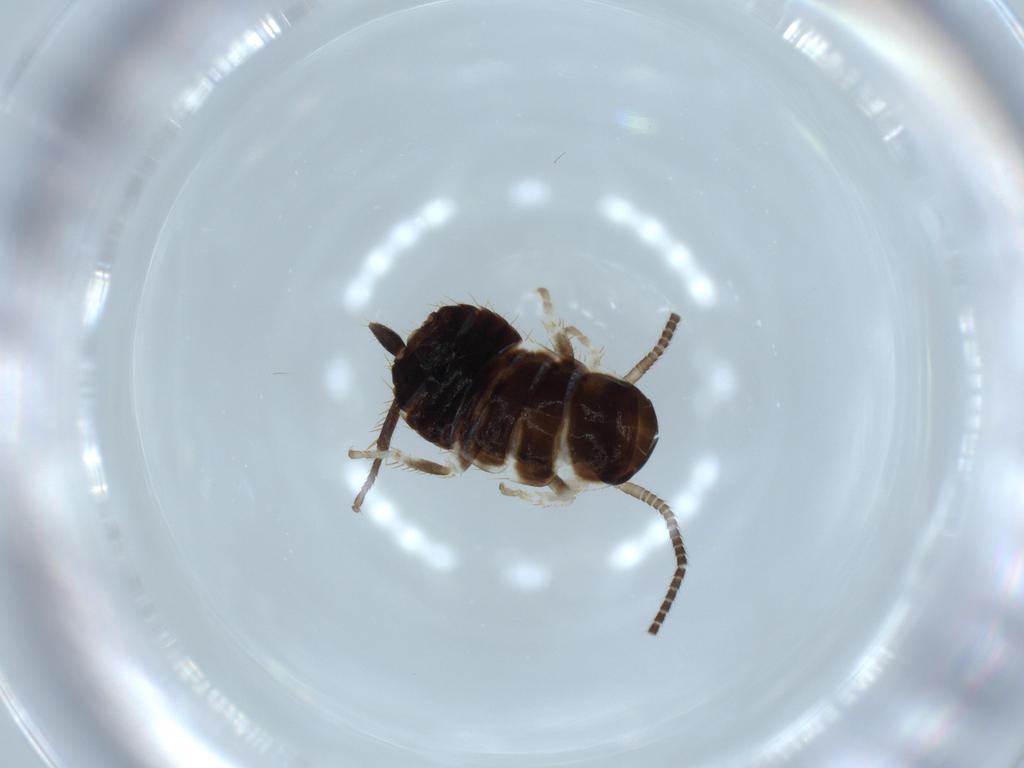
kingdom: Animalia
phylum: Arthropoda
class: Insecta
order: Blattodea
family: Ectobiidae
